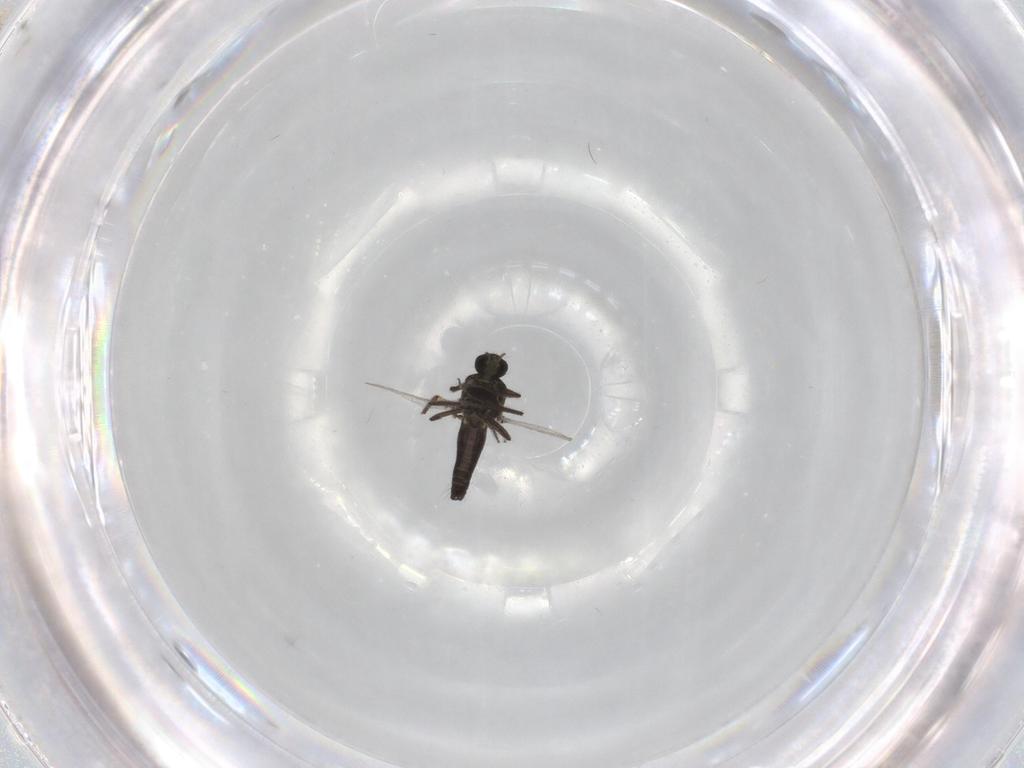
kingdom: Animalia
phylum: Arthropoda
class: Insecta
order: Diptera
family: Ceratopogonidae
